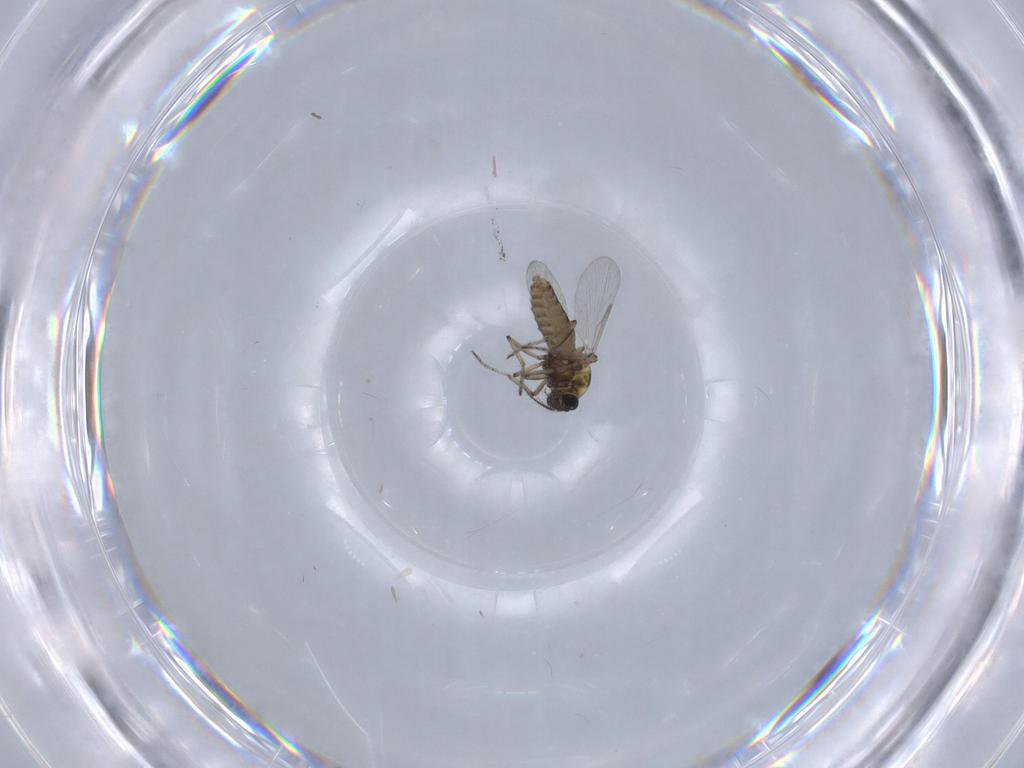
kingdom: Animalia
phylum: Arthropoda
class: Insecta
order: Diptera
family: Ceratopogonidae
